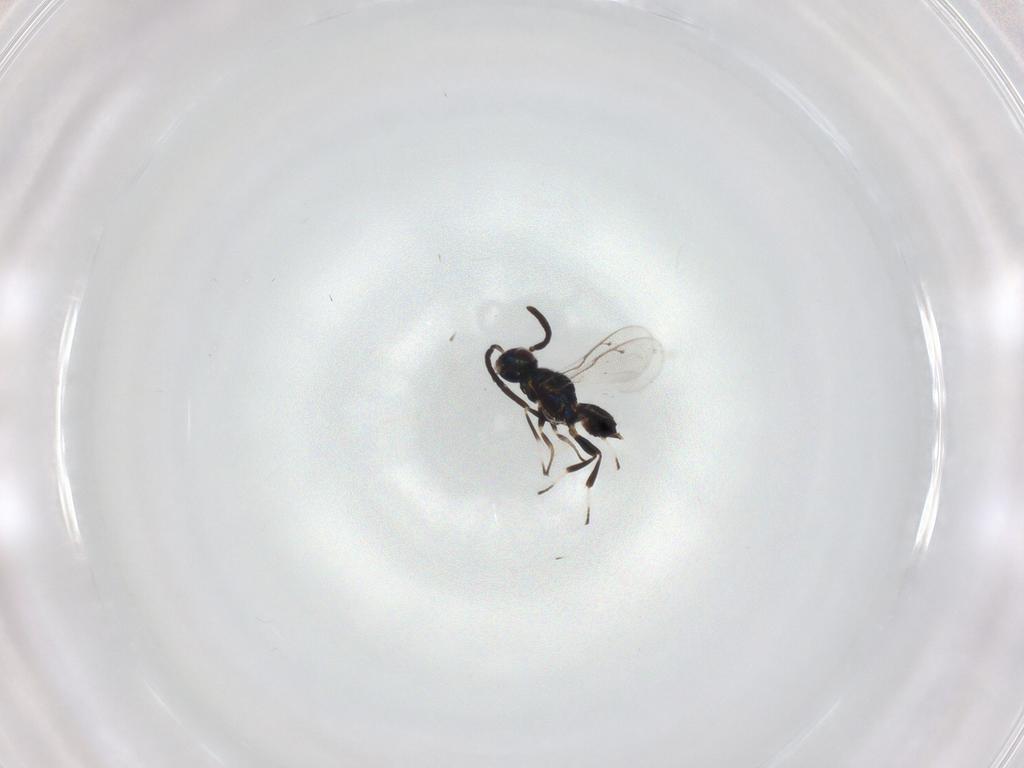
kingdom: Animalia
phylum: Arthropoda
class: Insecta
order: Hymenoptera
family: Eupelmidae
